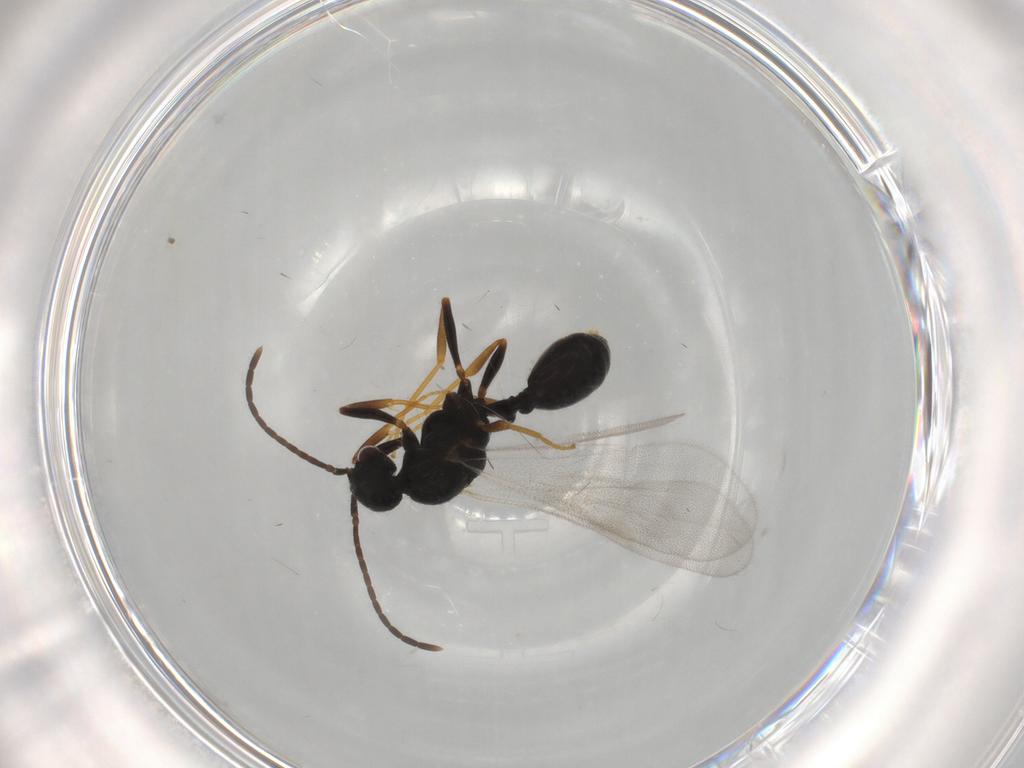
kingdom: Animalia
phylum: Arthropoda
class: Insecta
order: Hymenoptera
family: Formicidae
